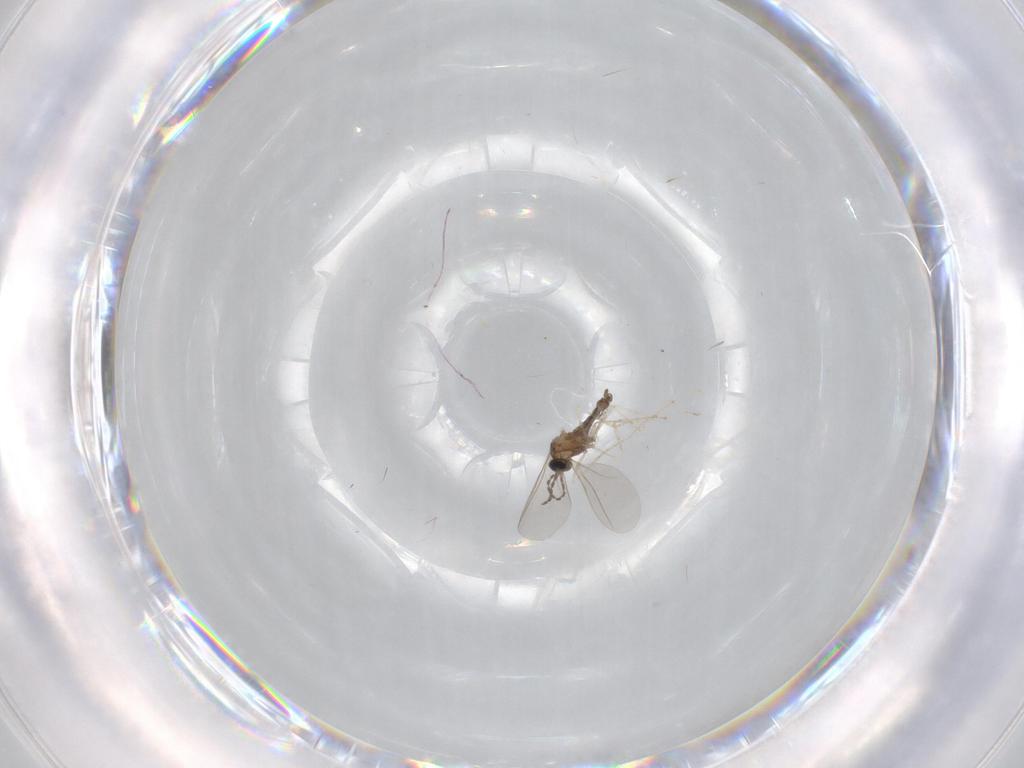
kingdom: Animalia
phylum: Arthropoda
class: Insecta
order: Diptera
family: Cecidomyiidae
